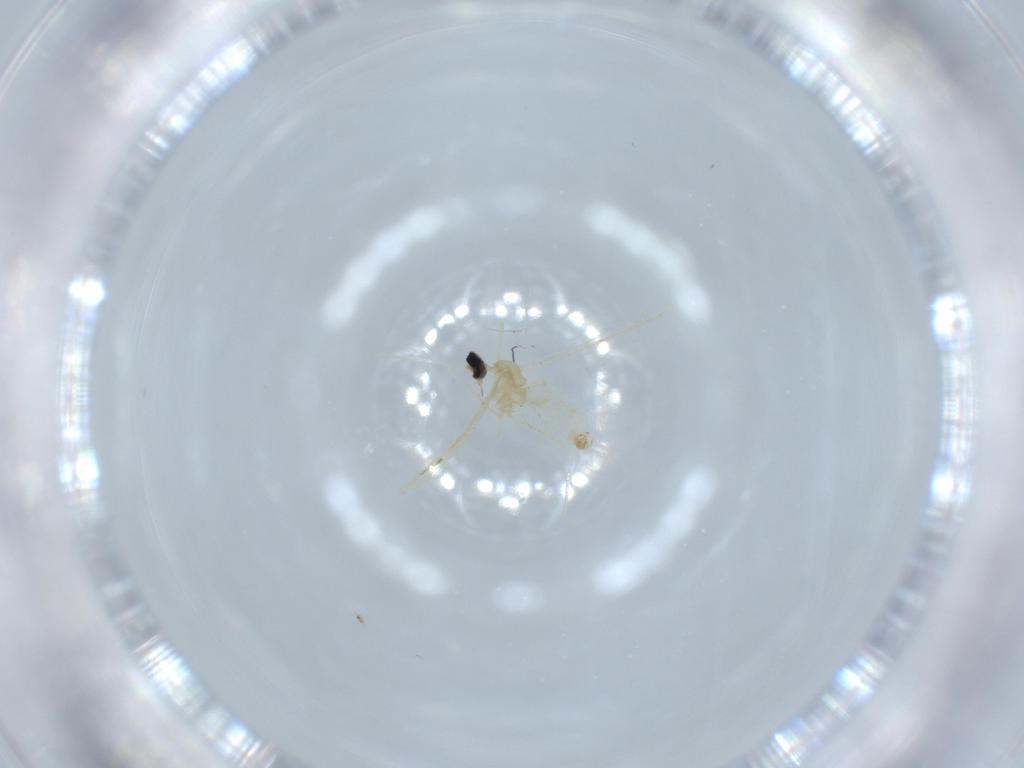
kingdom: Animalia
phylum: Arthropoda
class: Insecta
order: Diptera
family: Cecidomyiidae
